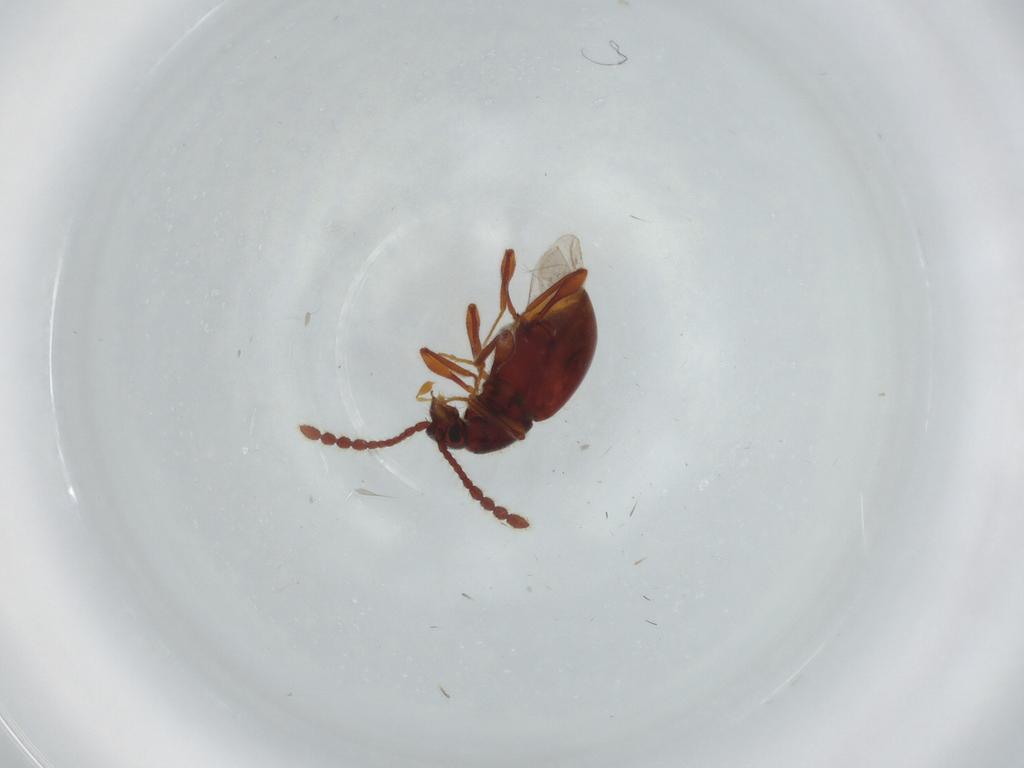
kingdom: Animalia
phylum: Arthropoda
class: Insecta
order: Coleoptera
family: Staphylinidae
